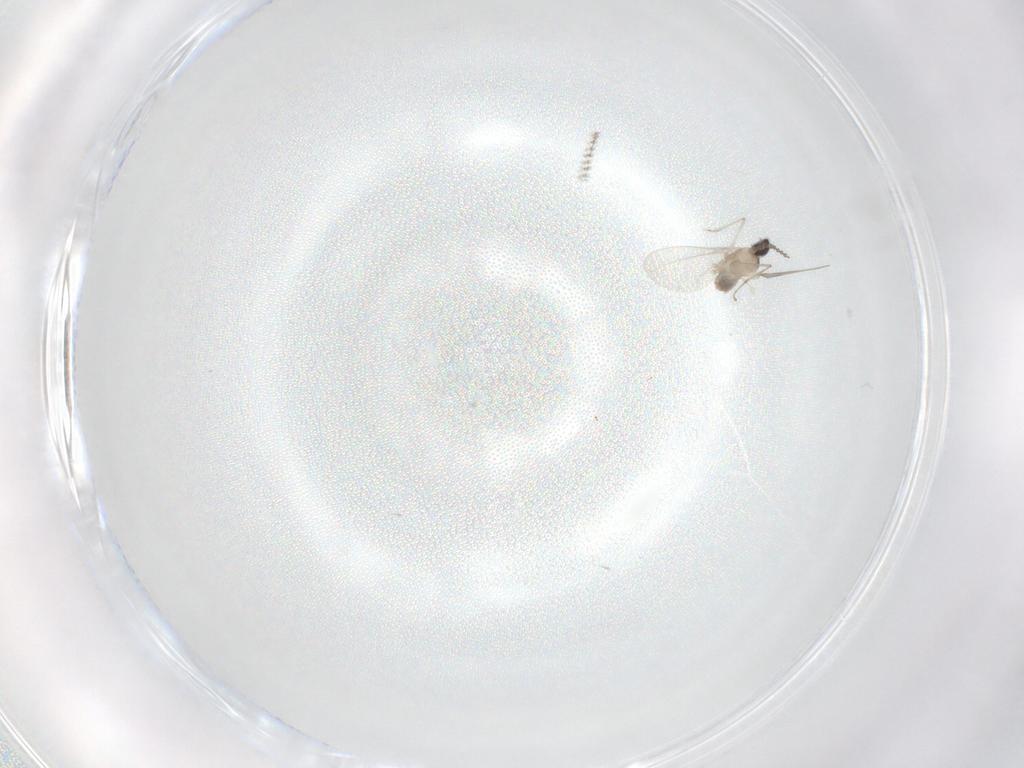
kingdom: Animalia
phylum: Arthropoda
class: Insecta
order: Diptera
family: Cecidomyiidae
